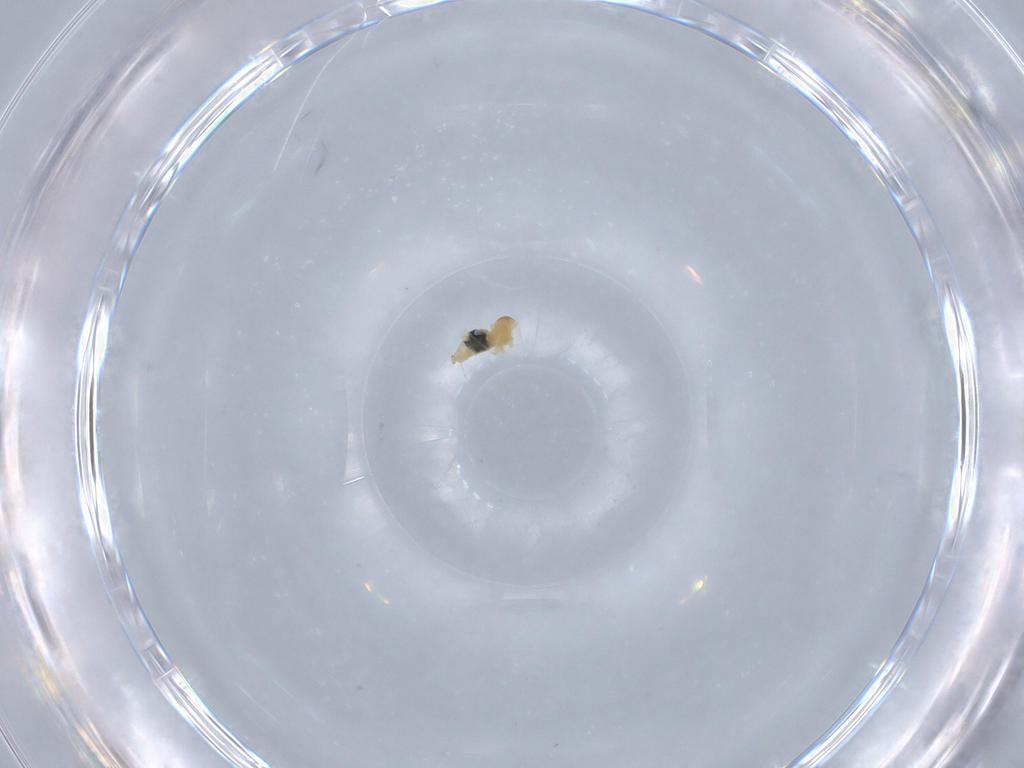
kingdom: Animalia
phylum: Arthropoda
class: Insecta
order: Diptera
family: Cecidomyiidae
